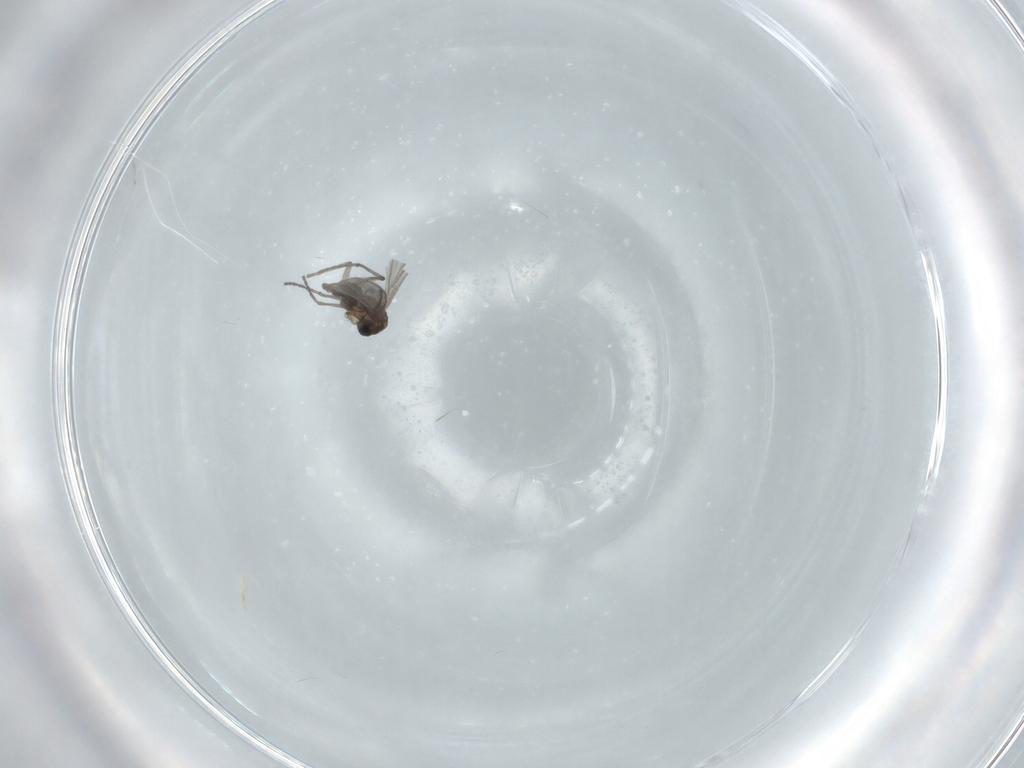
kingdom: Animalia
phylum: Arthropoda
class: Insecta
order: Diptera
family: Sciaridae
